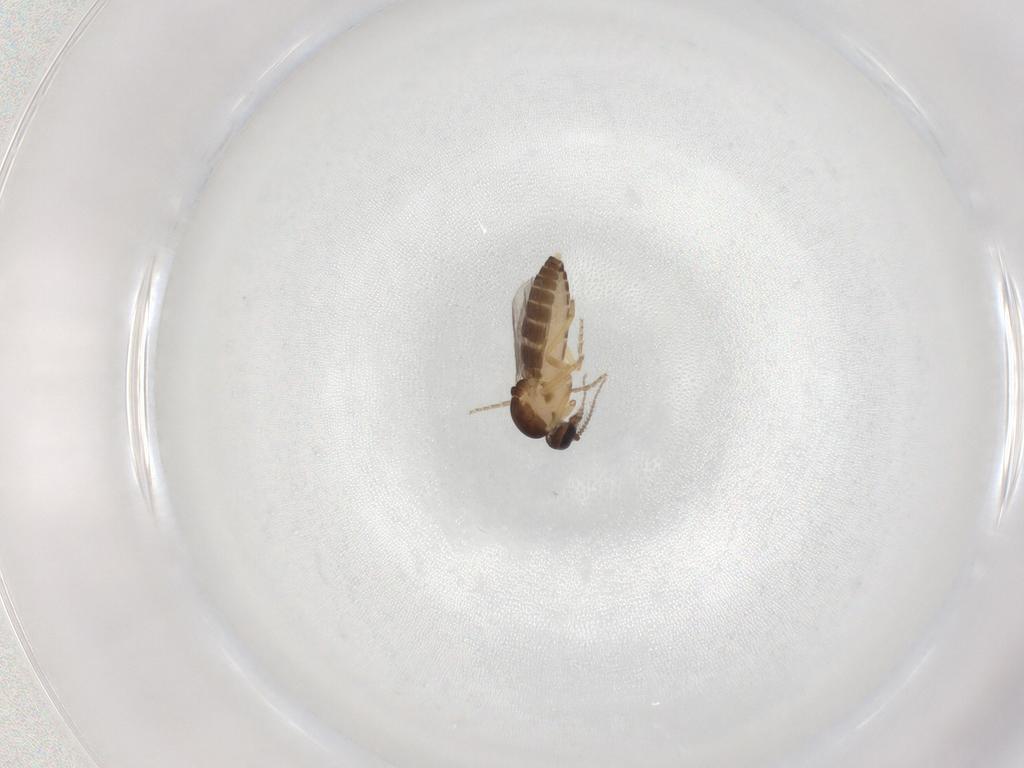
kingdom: Animalia
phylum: Arthropoda
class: Insecta
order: Diptera
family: Ceratopogonidae
